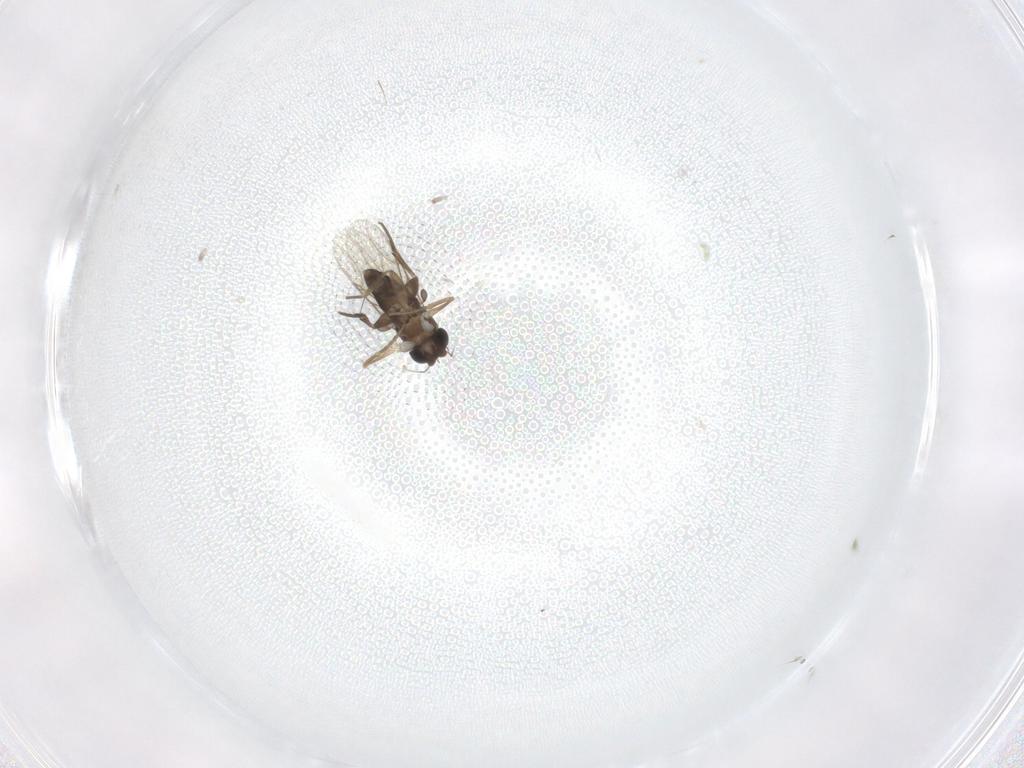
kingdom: Animalia
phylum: Arthropoda
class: Insecta
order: Diptera
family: Phoridae
